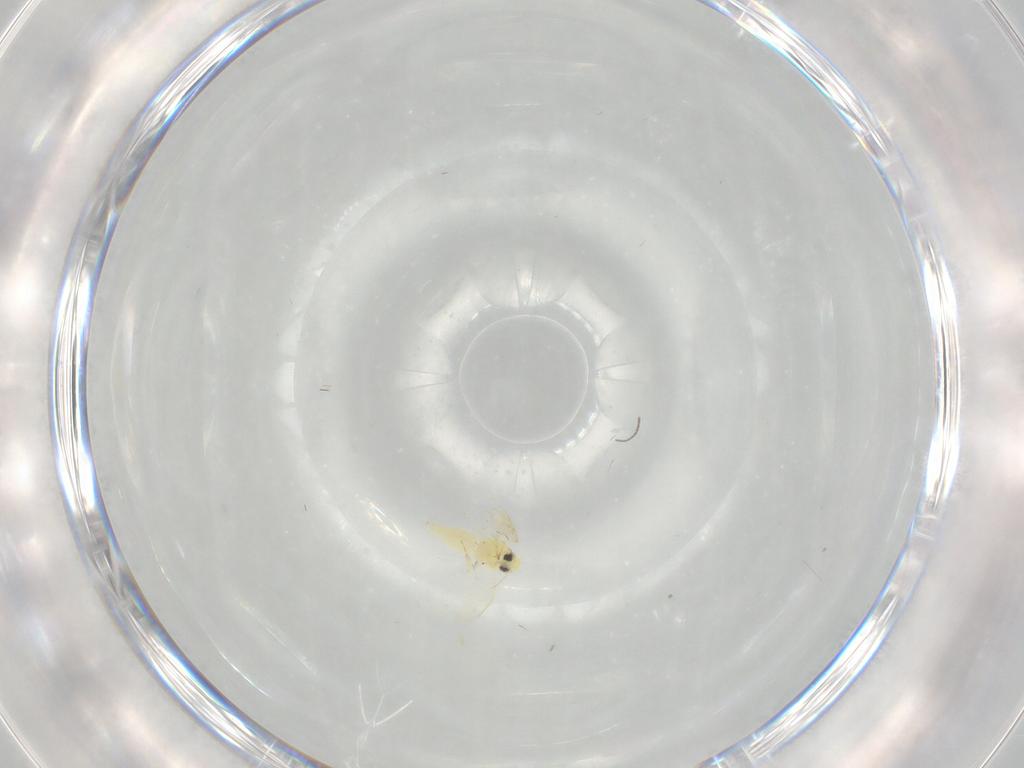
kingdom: Animalia
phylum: Arthropoda
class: Insecta
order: Hemiptera
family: Aleyrodidae
